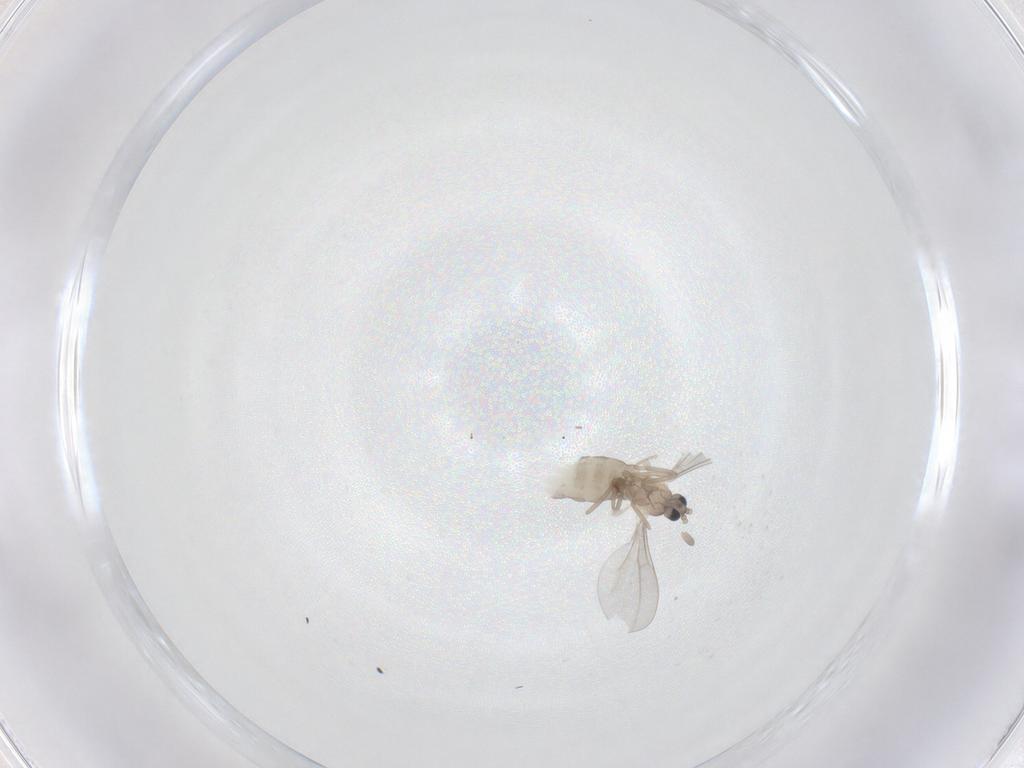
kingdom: Animalia
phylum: Arthropoda
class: Insecta
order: Diptera
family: Cecidomyiidae
